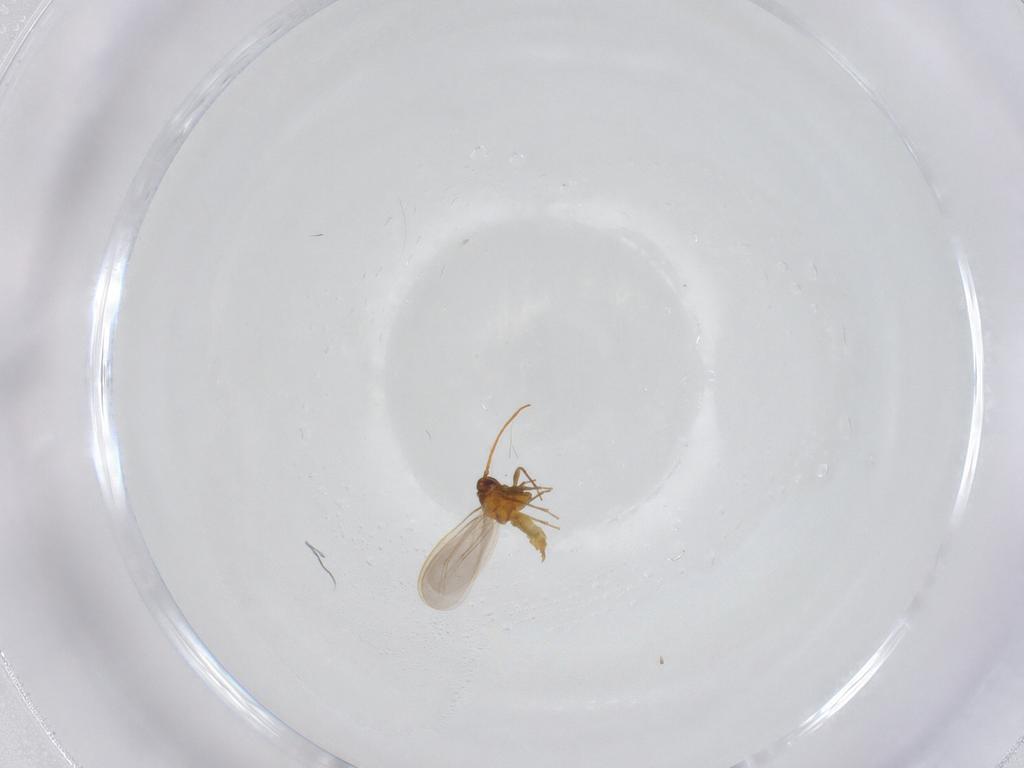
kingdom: Animalia
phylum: Arthropoda
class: Insecta
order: Hemiptera
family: Aleyrodidae
